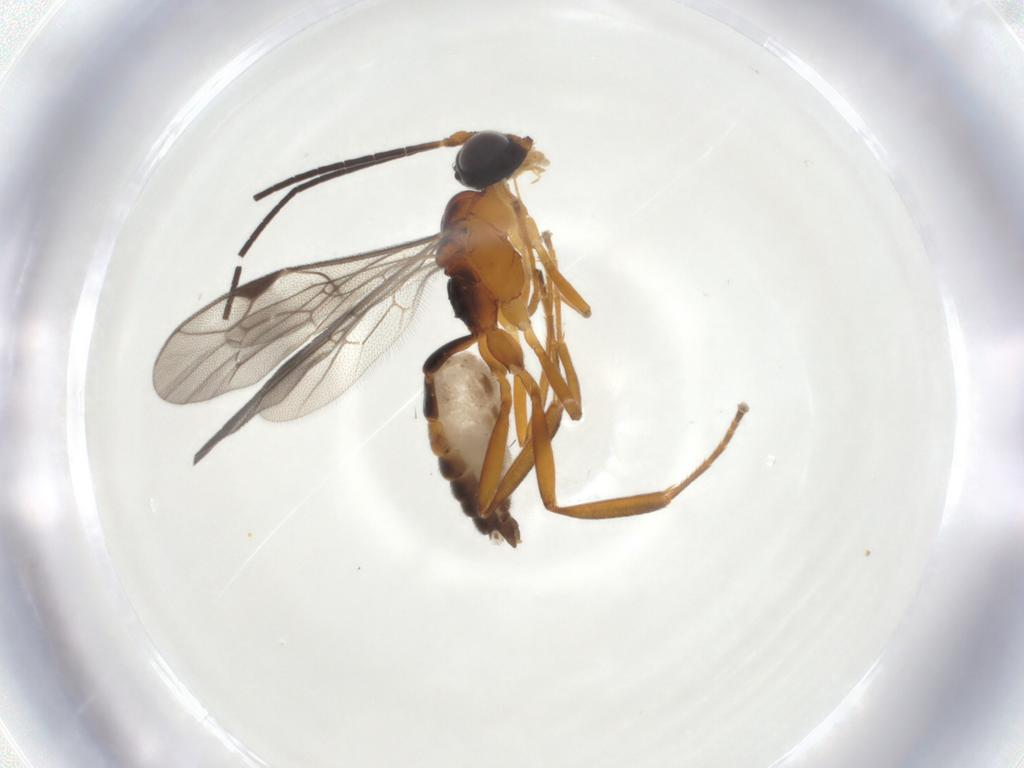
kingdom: Animalia
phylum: Arthropoda
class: Insecta
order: Hymenoptera
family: Ichneumonidae
